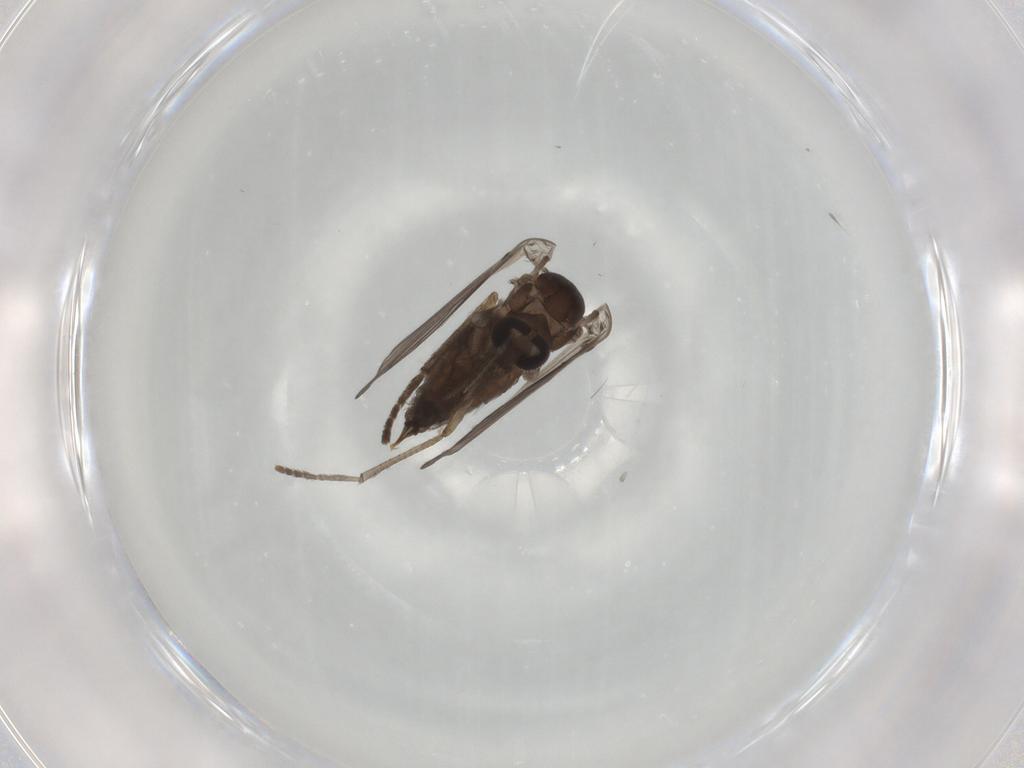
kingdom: Animalia
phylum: Arthropoda
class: Insecta
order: Diptera
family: Psychodidae
